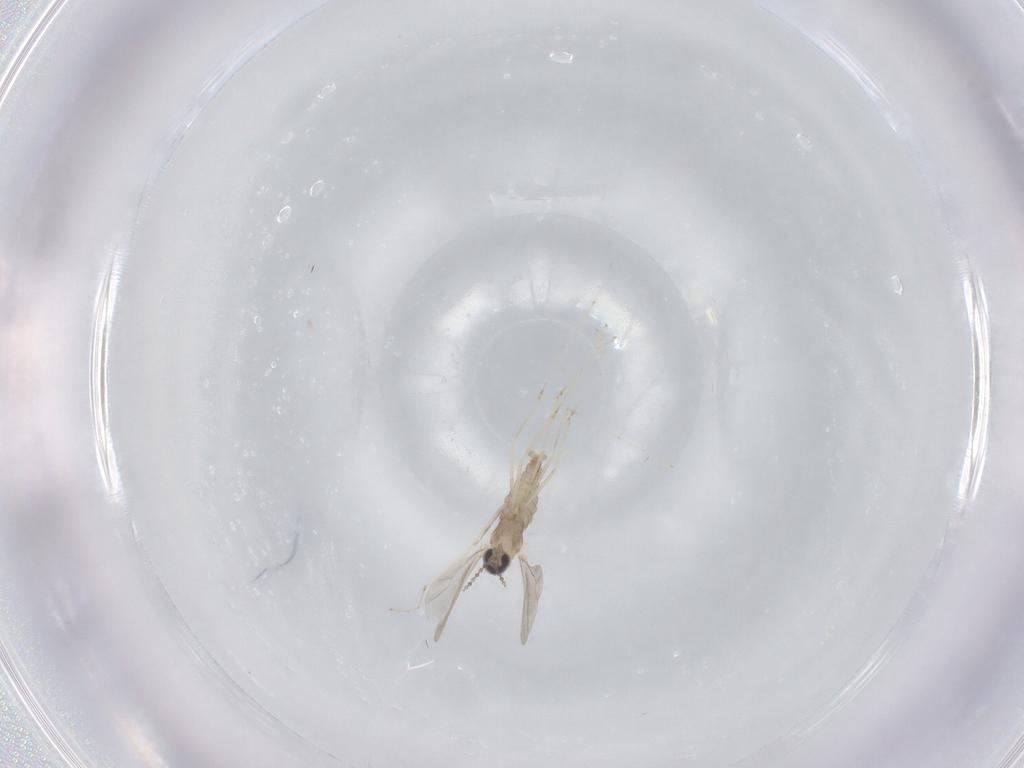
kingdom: Animalia
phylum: Arthropoda
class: Insecta
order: Diptera
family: Cecidomyiidae
